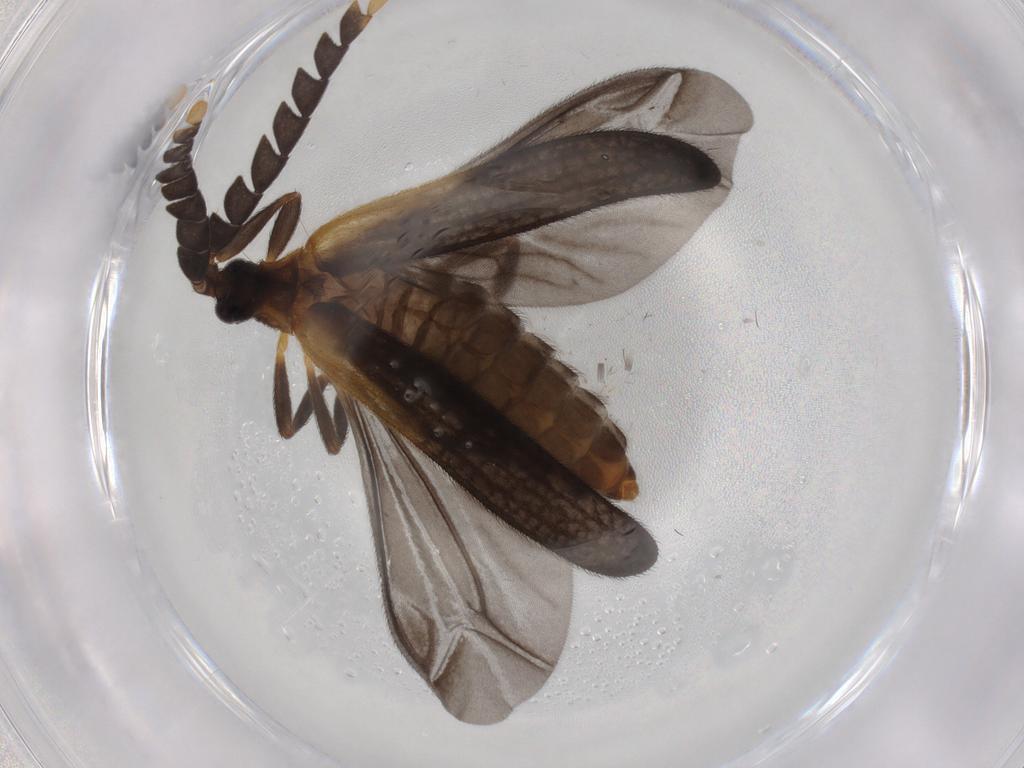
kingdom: Animalia
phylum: Arthropoda
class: Insecta
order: Coleoptera
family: Lycidae
